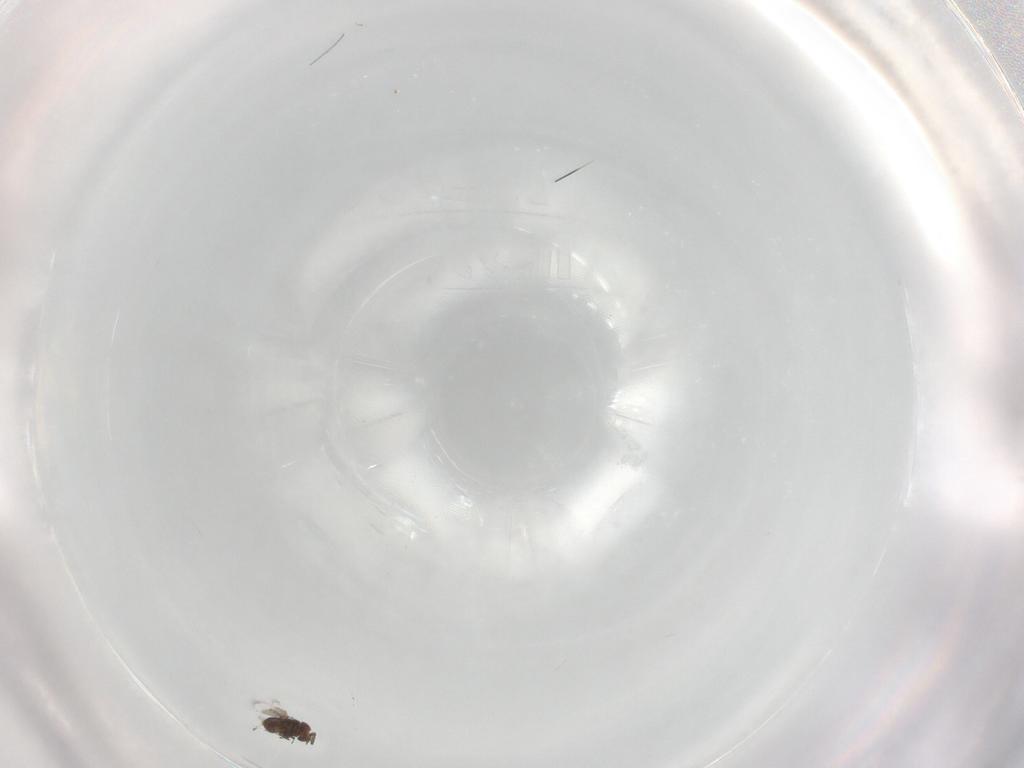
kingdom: Animalia
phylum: Arthropoda
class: Insecta
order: Hymenoptera
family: Trichogrammatidae
